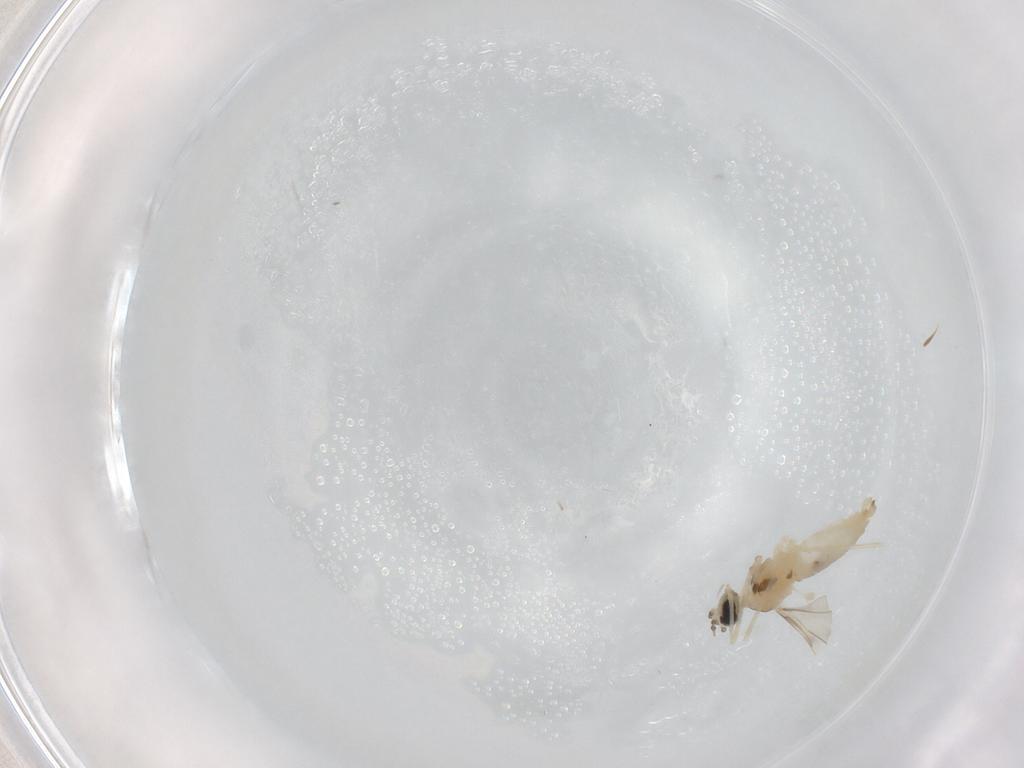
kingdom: Animalia
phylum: Arthropoda
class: Insecta
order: Diptera
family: Cecidomyiidae
